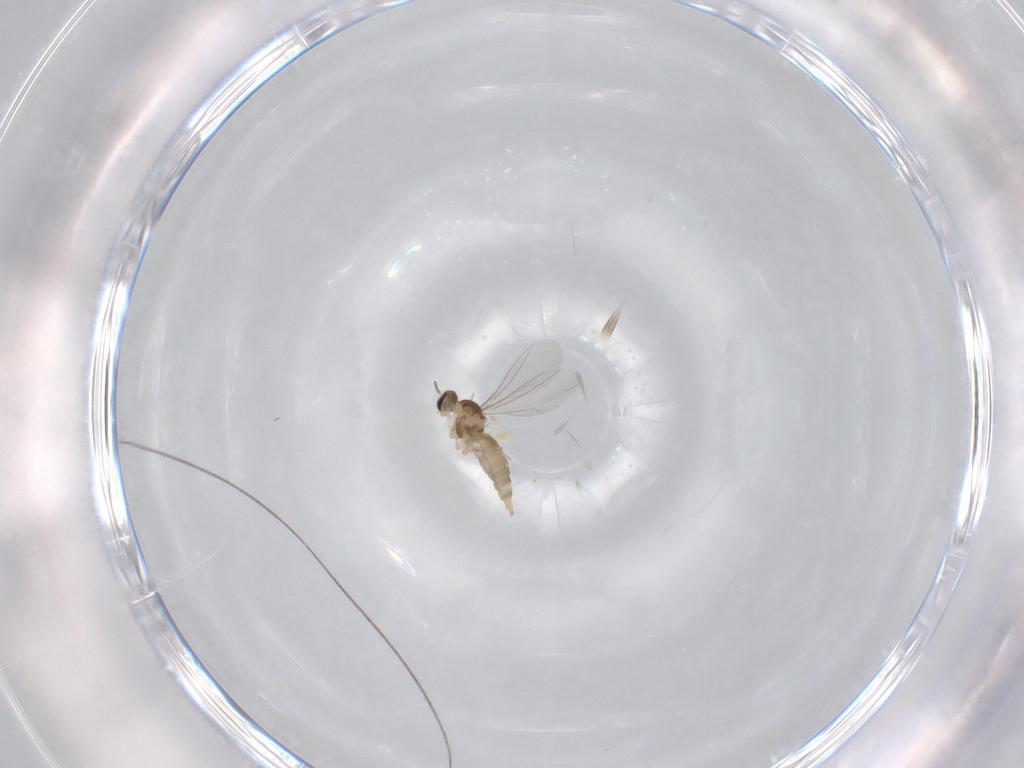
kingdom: Animalia
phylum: Arthropoda
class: Insecta
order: Diptera
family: Cecidomyiidae
